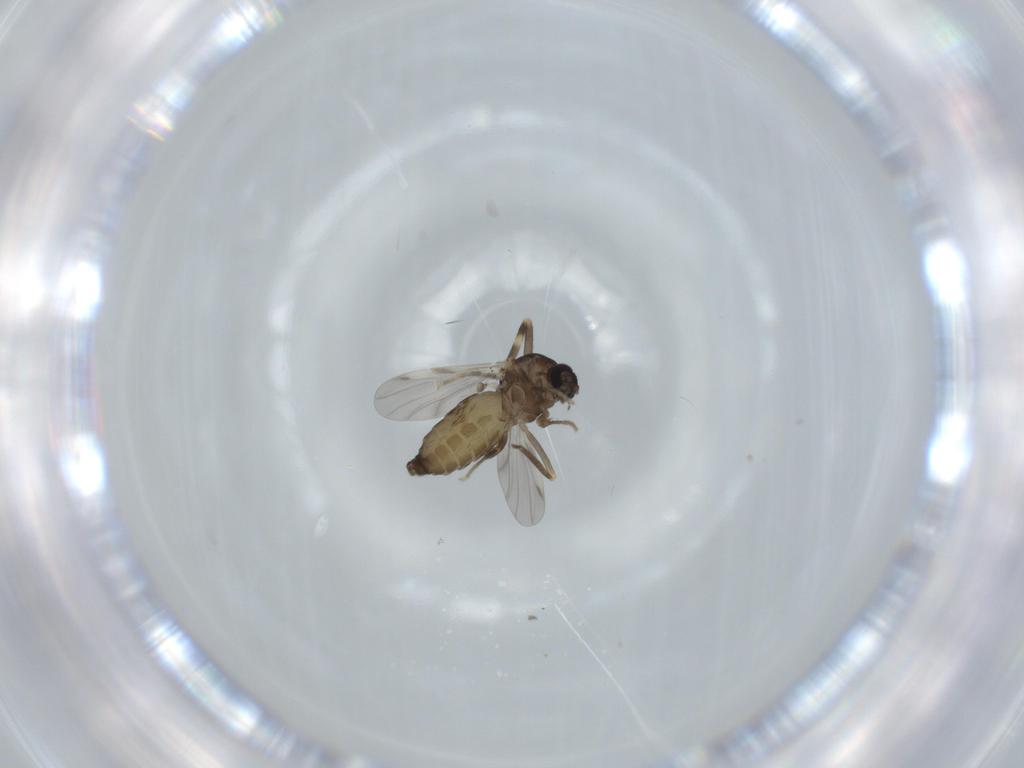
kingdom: Animalia
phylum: Arthropoda
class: Insecta
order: Diptera
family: Ceratopogonidae
